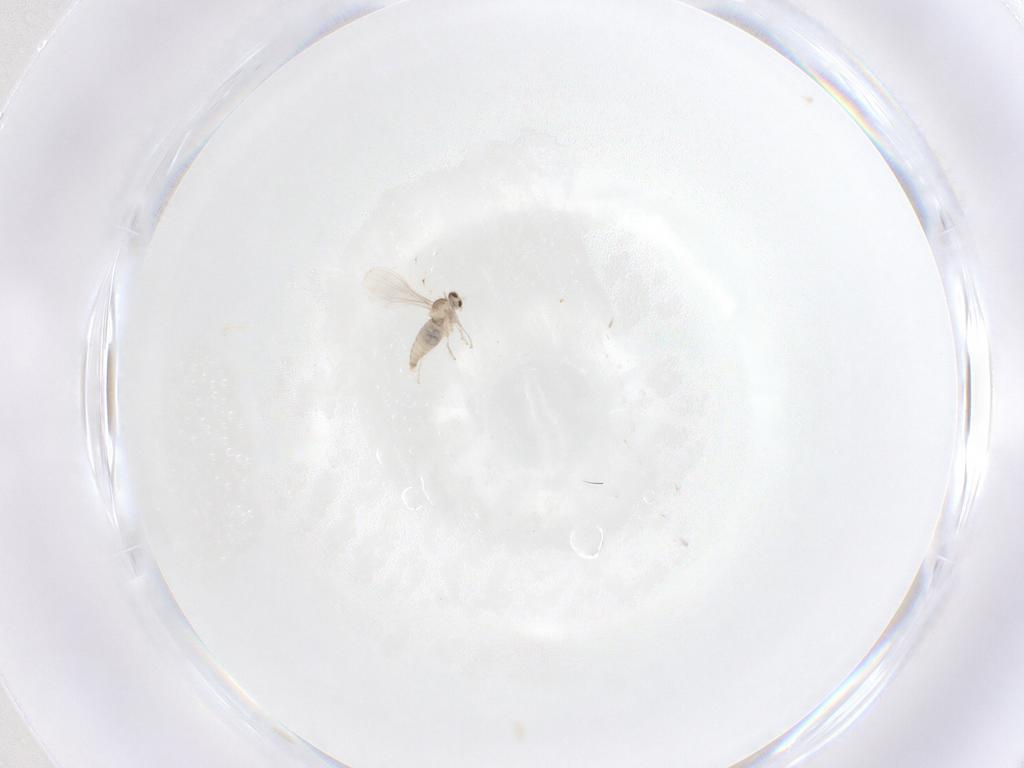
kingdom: Animalia
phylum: Arthropoda
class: Insecta
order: Diptera
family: Cecidomyiidae
